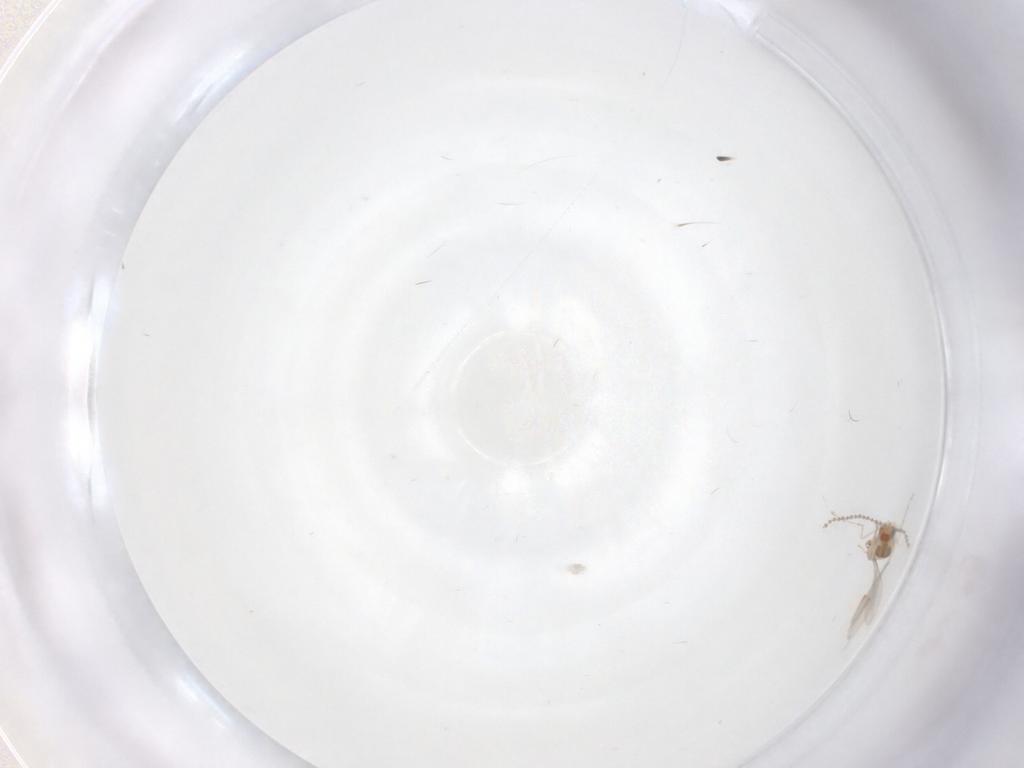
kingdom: Animalia
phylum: Arthropoda
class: Insecta
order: Diptera
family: Cecidomyiidae
